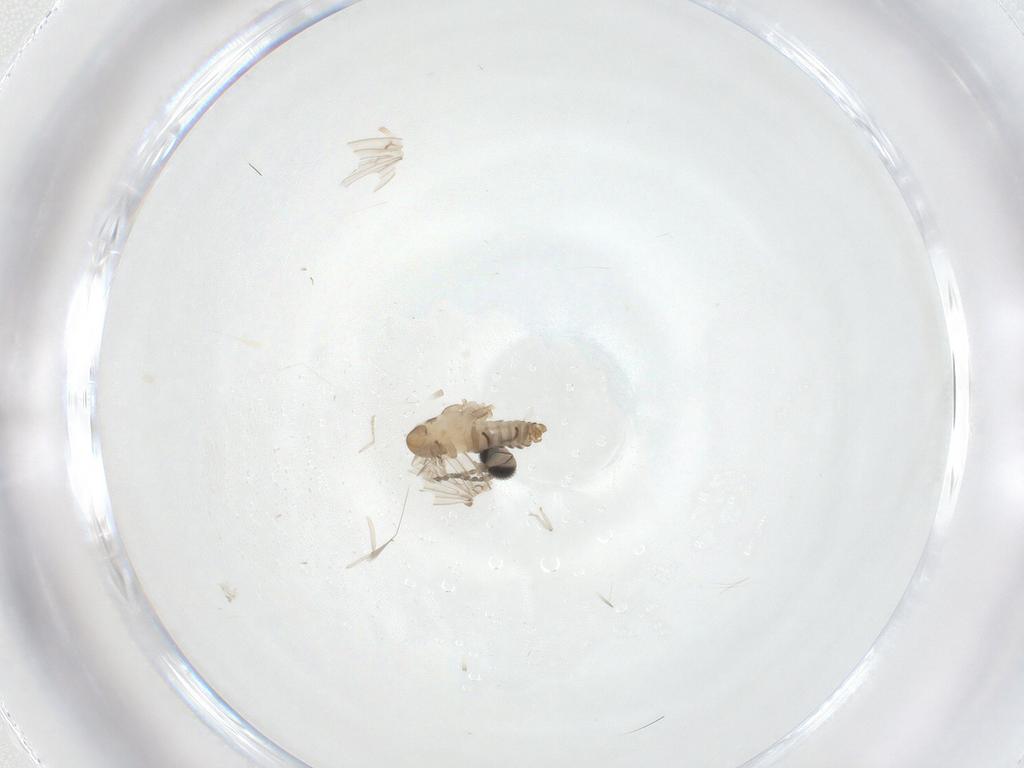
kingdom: Animalia
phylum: Arthropoda
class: Insecta
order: Diptera
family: Cecidomyiidae
